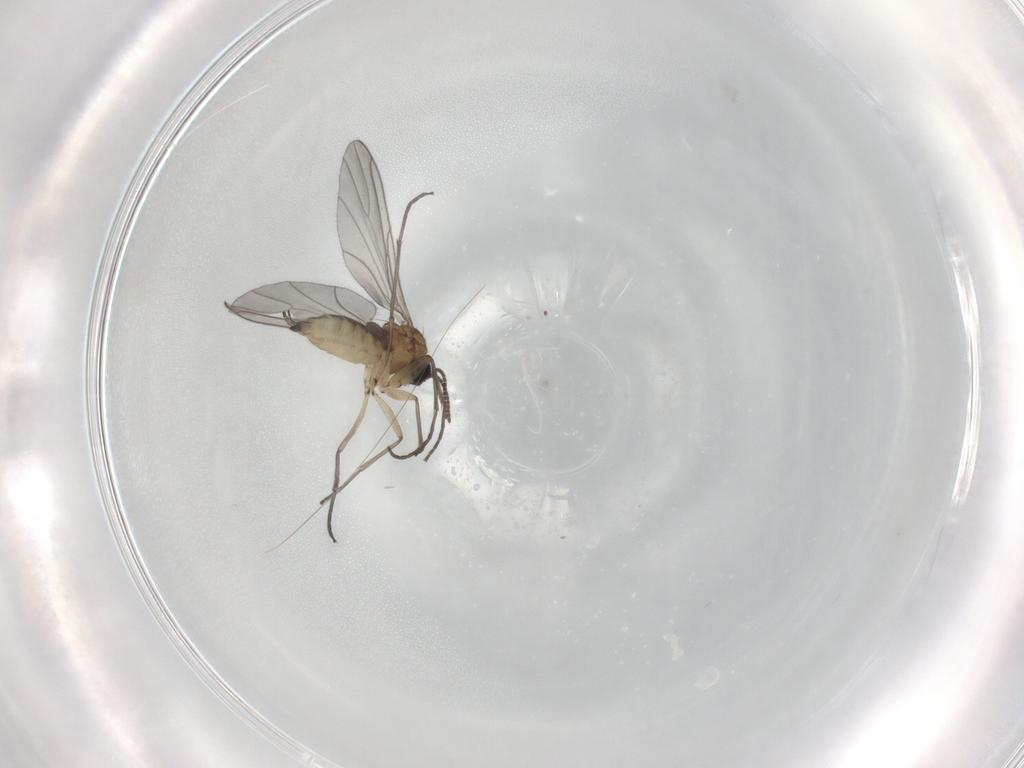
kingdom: Animalia
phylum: Arthropoda
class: Insecta
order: Diptera
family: Sciaridae
